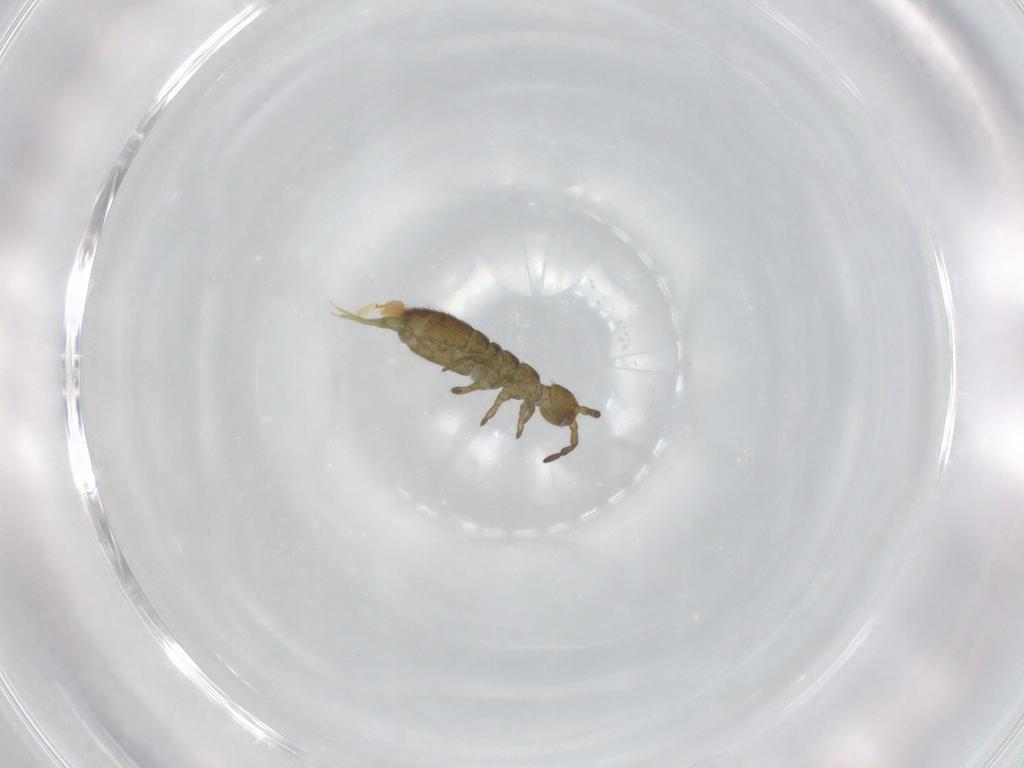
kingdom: Animalia
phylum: Arthropoda
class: Collembola
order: Entomobryomorpha
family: Isotomidae
